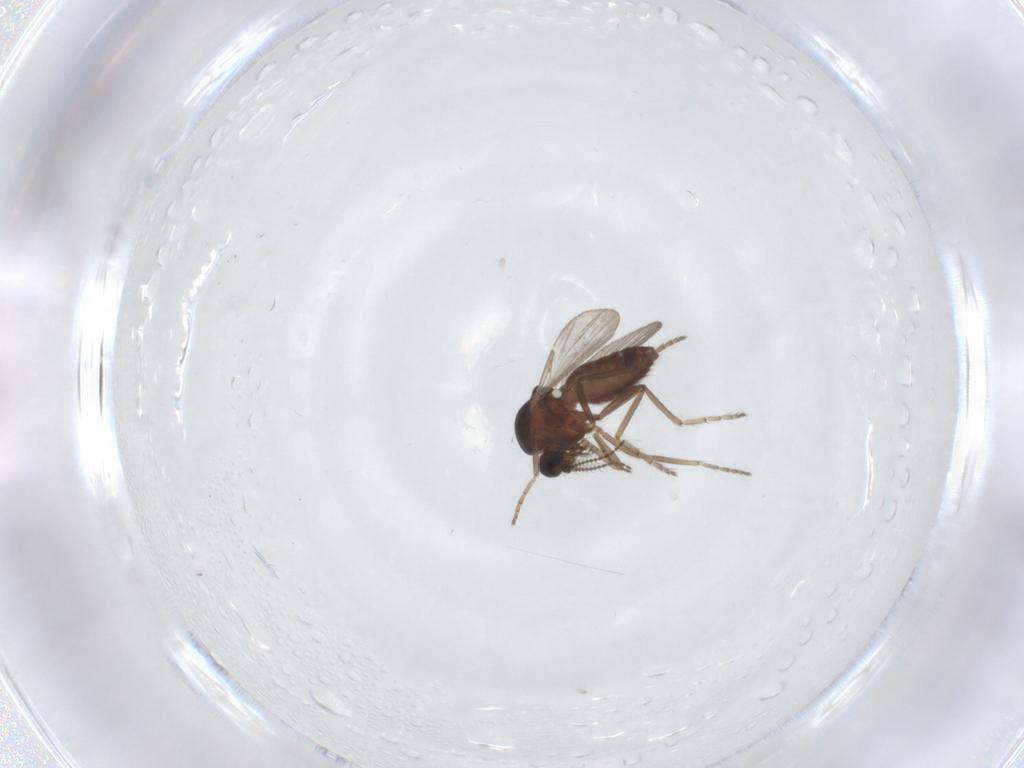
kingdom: Animalia
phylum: Arthropoda
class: Insecta
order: Diptera
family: Ceratopogonidae
